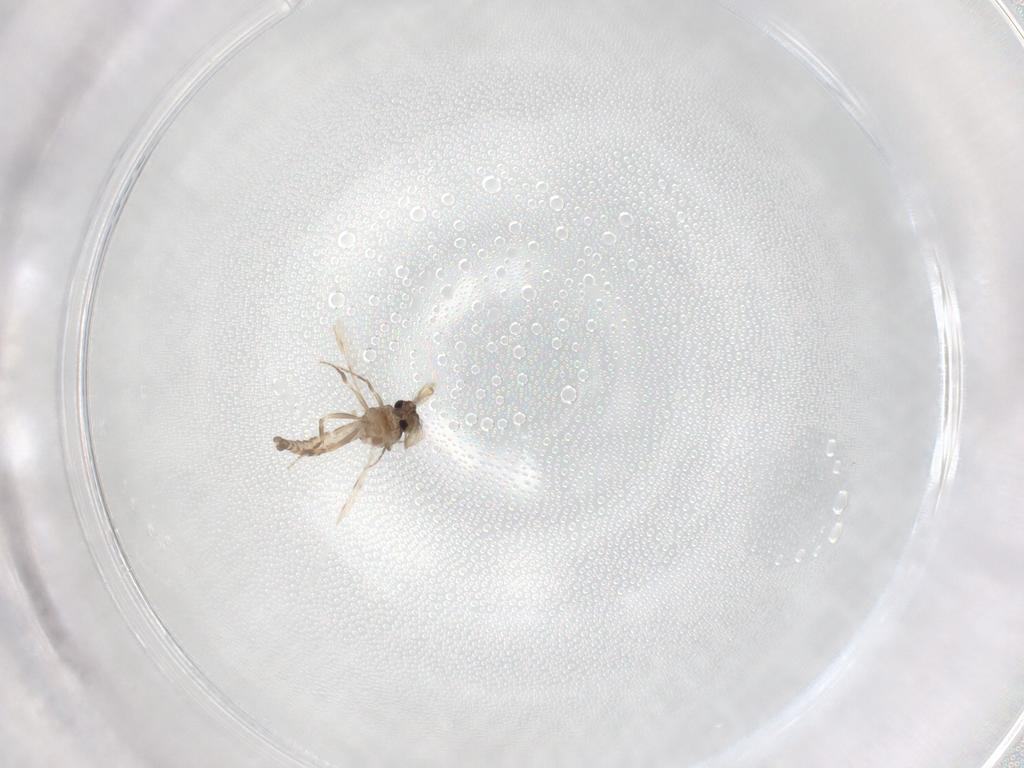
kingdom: Animalia
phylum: Arthropoda
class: Insecta
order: Diptera
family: Ceratopogonidae
